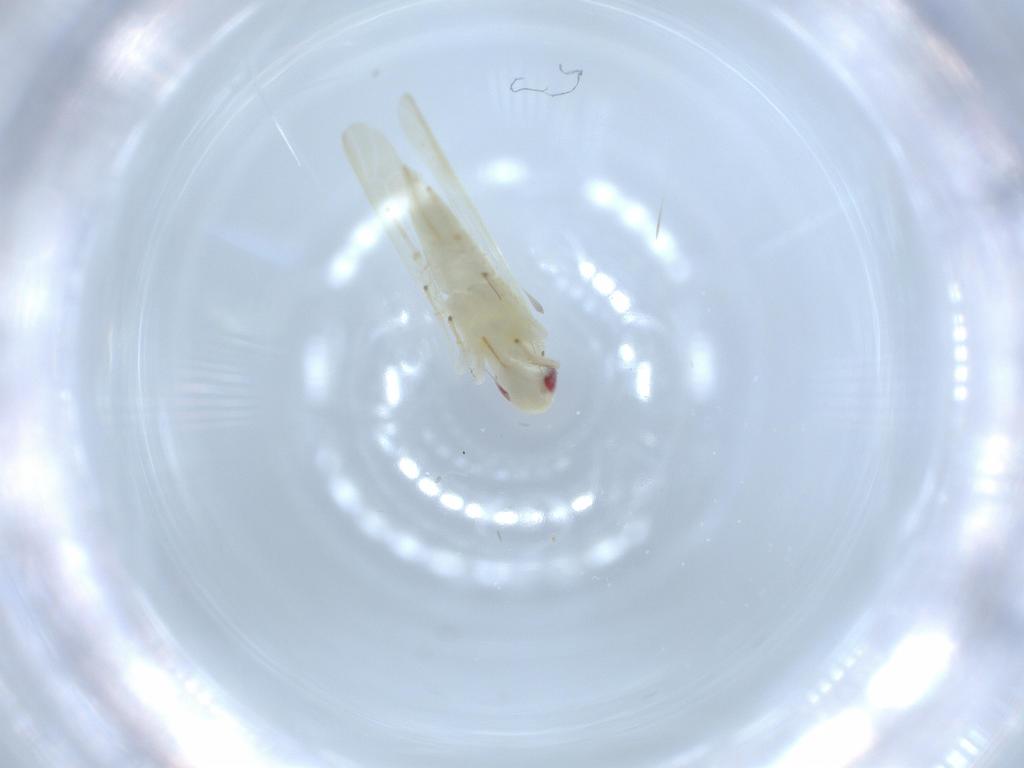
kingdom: Animalia
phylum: Arthropoda
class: Insecta
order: Hemiptera
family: Cicadellidae
